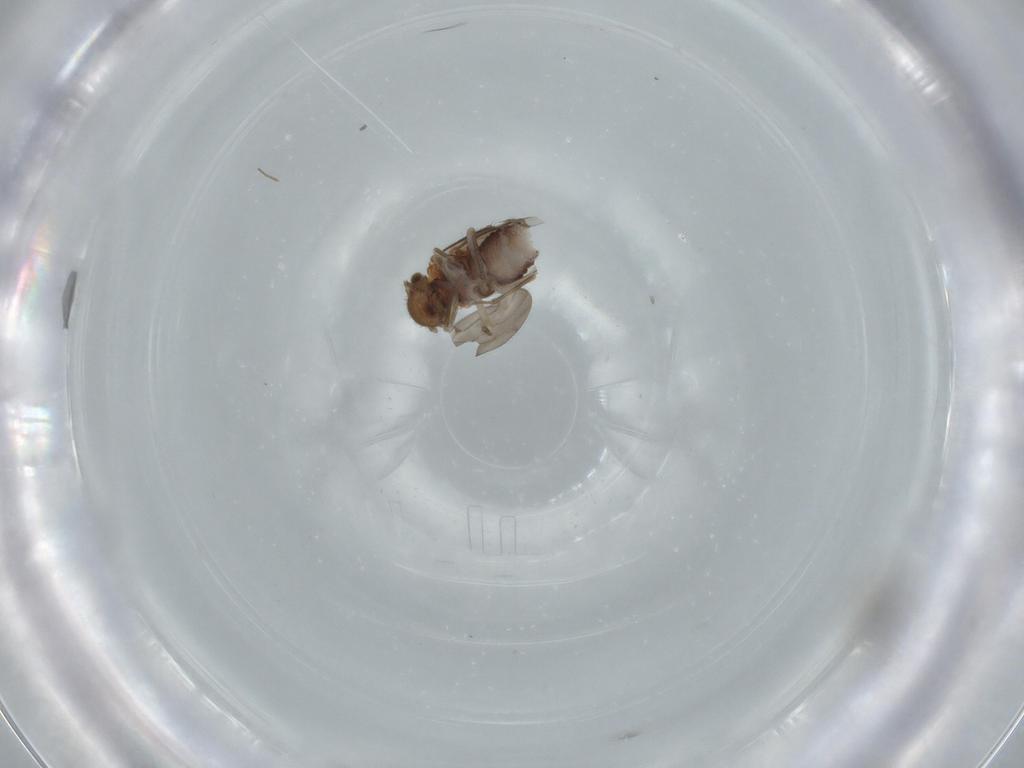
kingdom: Animalia
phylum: Arthropoda
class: Insecta
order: Psocodea
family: Ectopsocidae
